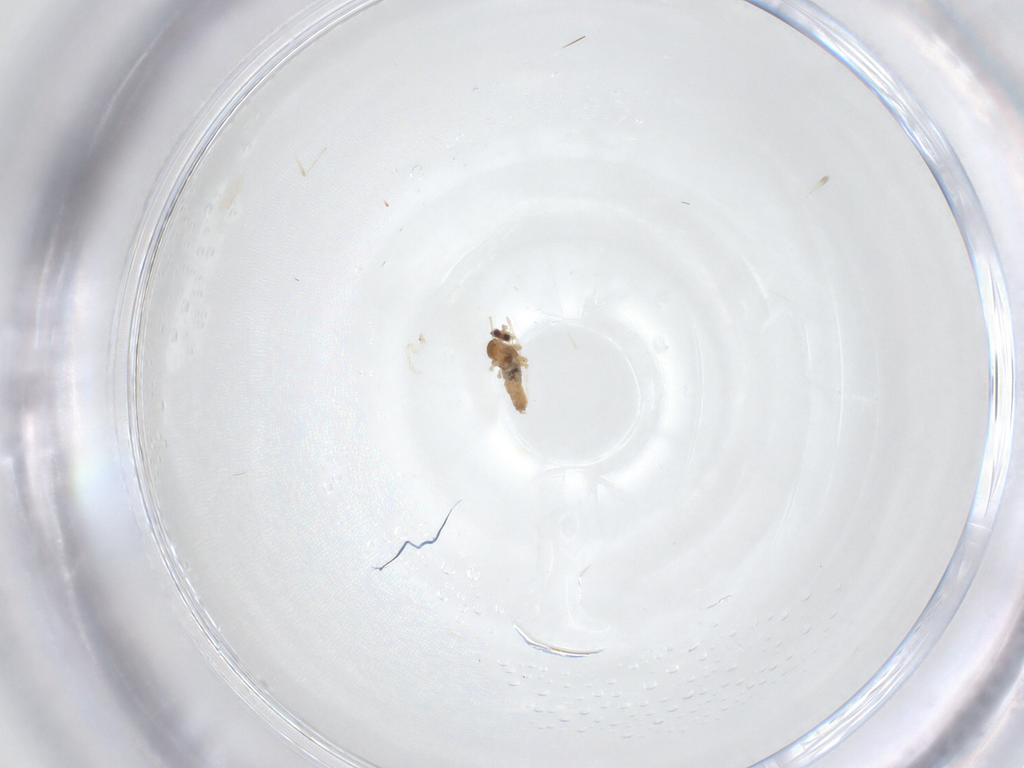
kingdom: Animalia
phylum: Arthropoda
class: Insecta
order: Diptera
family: Cecidomyiidae
